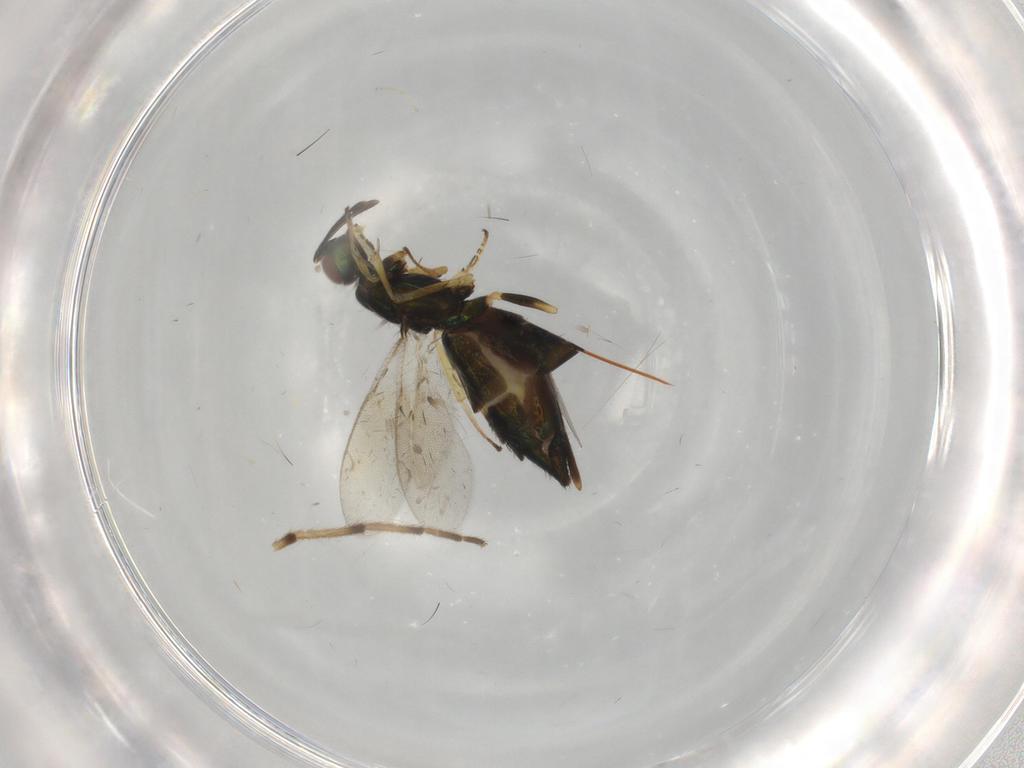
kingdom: Animalia
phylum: Arthropoda
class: Insecta
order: Hymenoptera
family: Eupelmidae
